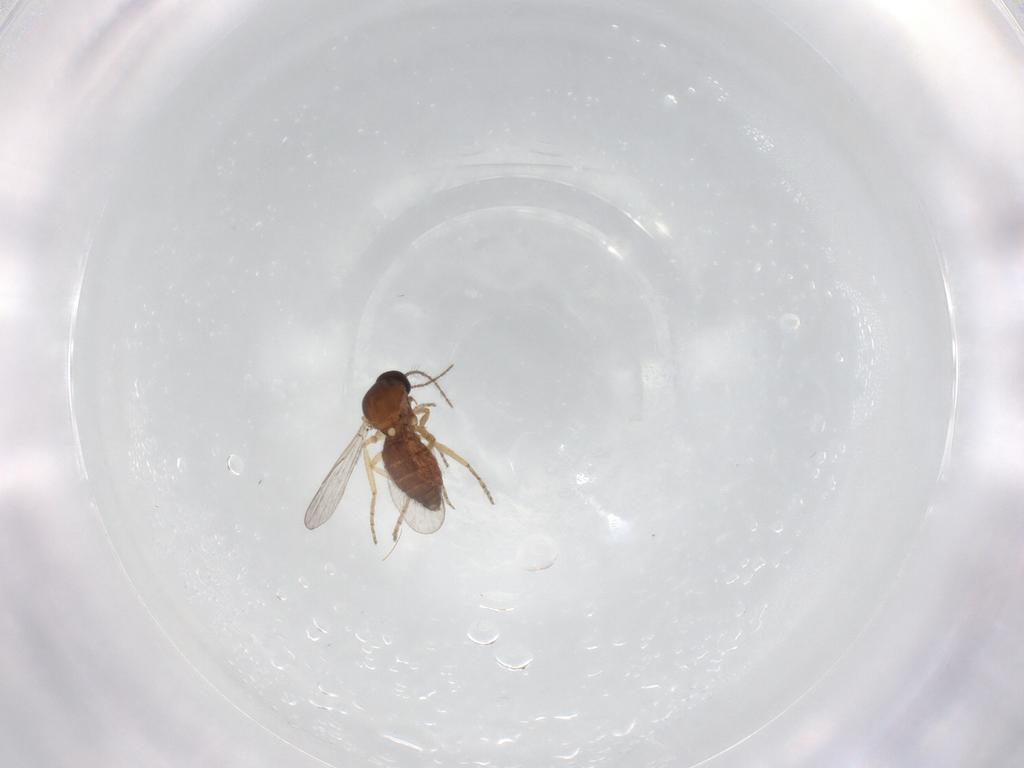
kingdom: Animalia
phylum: Arthropoda
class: Insecta
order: Diptera
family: Ceratopogonidae
